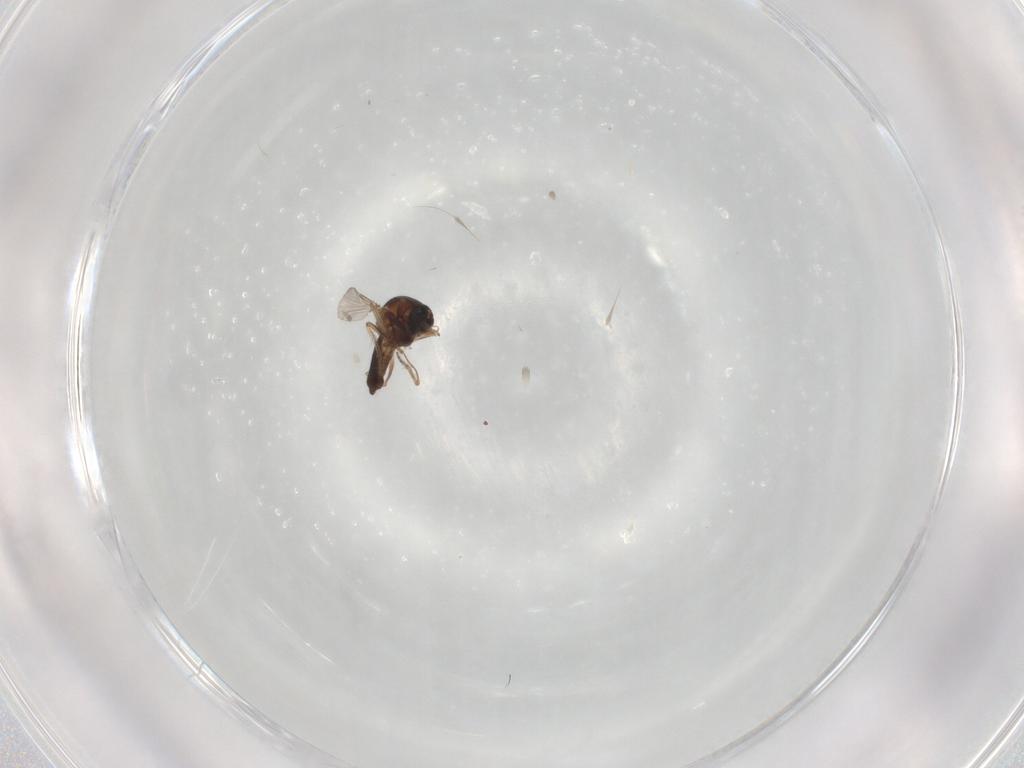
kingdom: Animalia
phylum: Arthropoda
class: Insecta
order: Diptera
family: Ceratopogonidae
